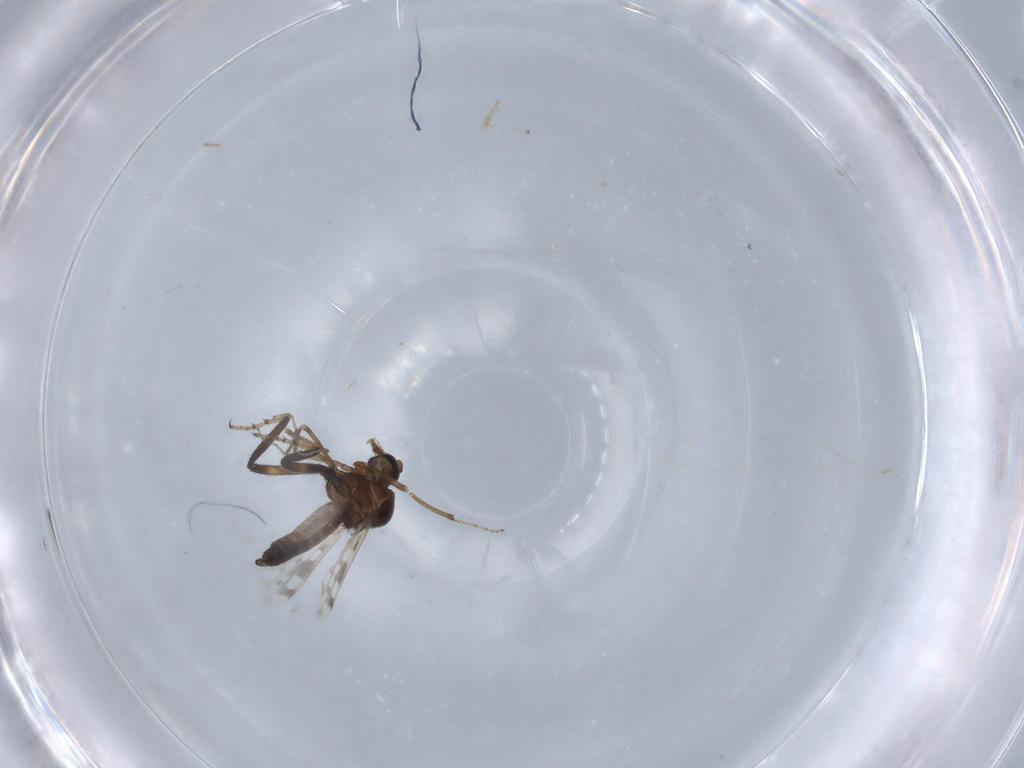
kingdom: Animalia
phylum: Arthropoda
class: Insecta
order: Diptera
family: Ceratopogonidae
